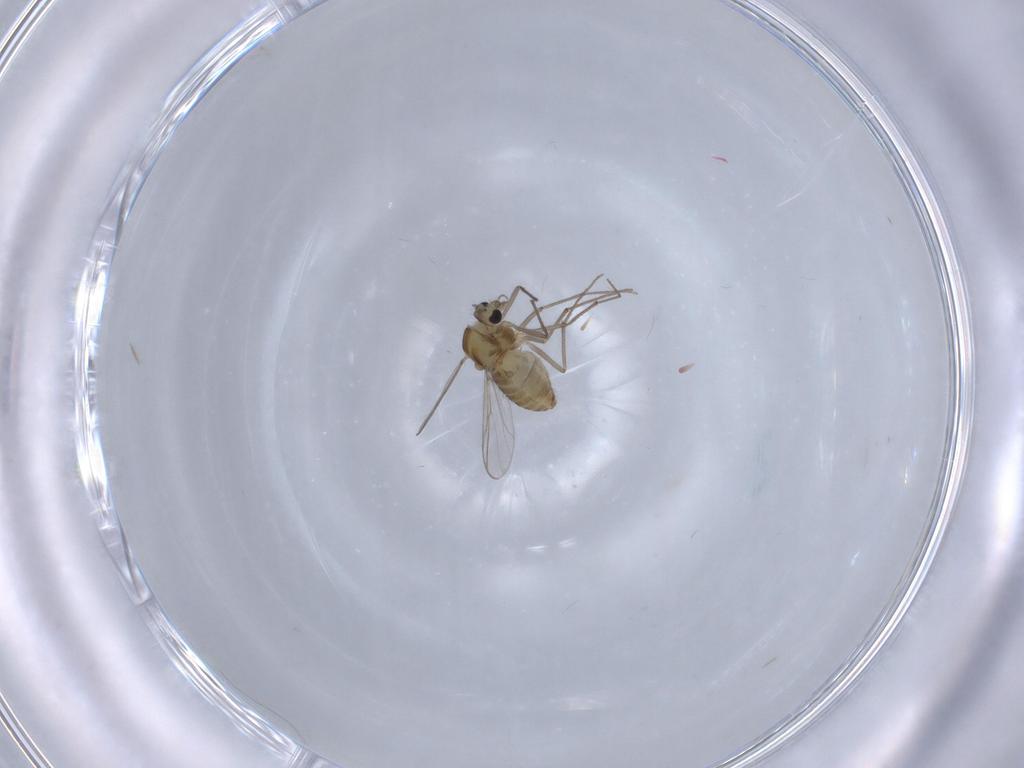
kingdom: Animalia
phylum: Arthropoda
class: Insecta
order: Diptera
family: Chironomidae
